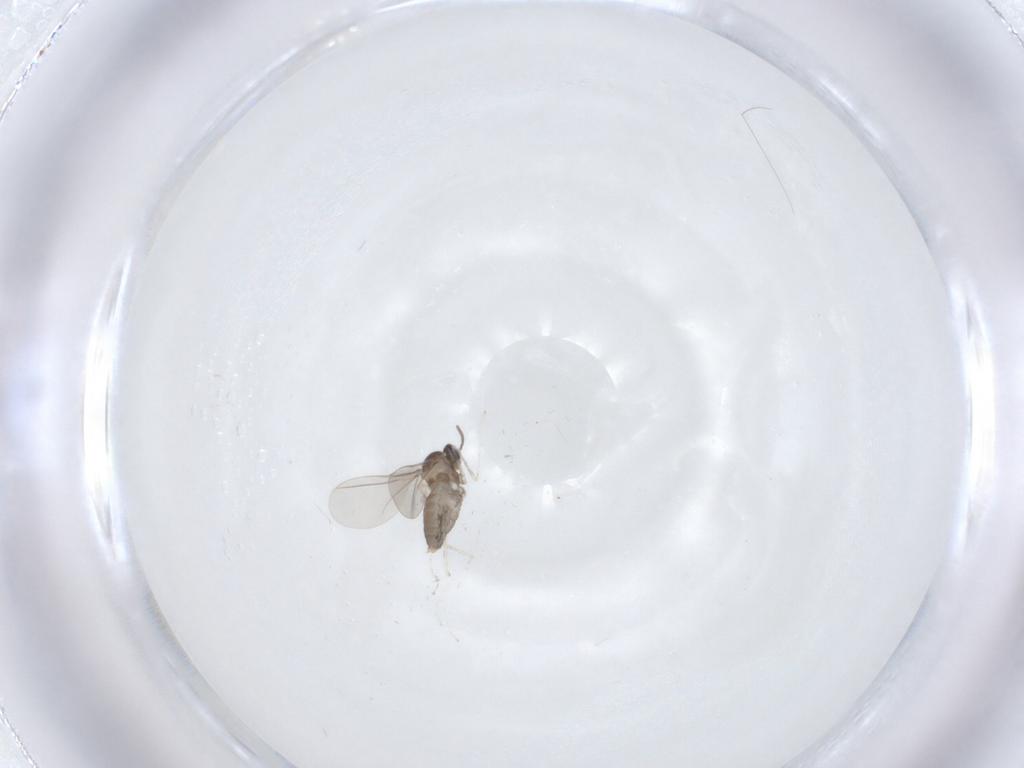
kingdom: Animalia
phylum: Arthropoda
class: Insecta
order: Diptera
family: Cecidomyiidae
